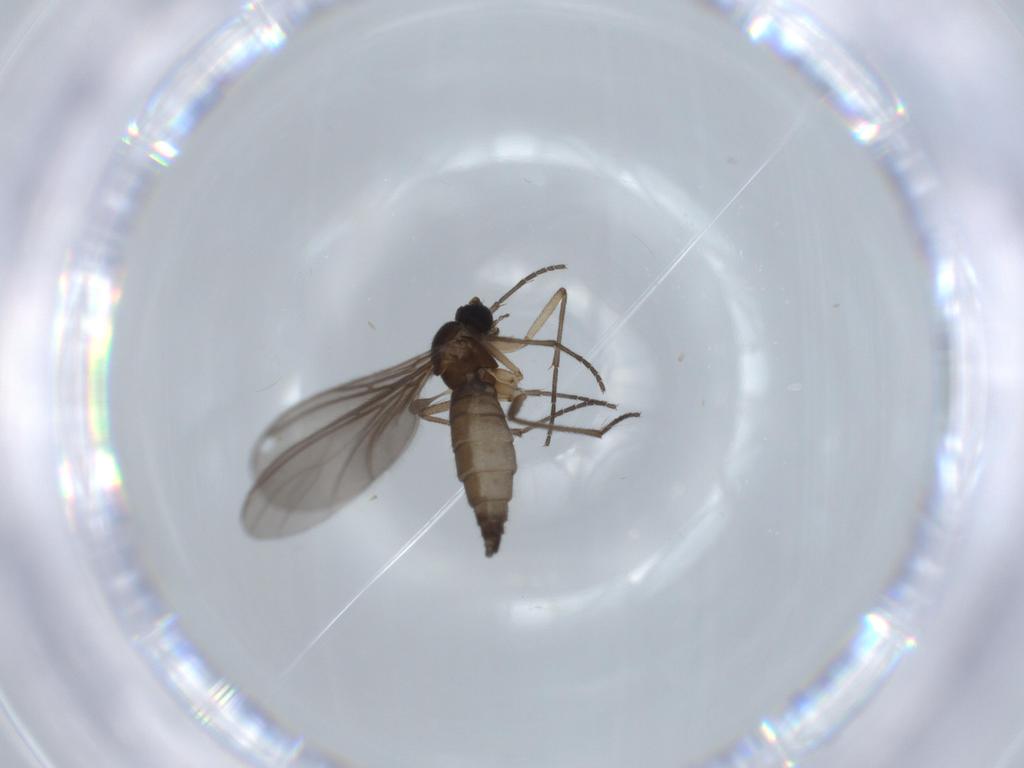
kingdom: Animalia
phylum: Arthropoda
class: Insecta
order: Diptera
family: Sciaridae
